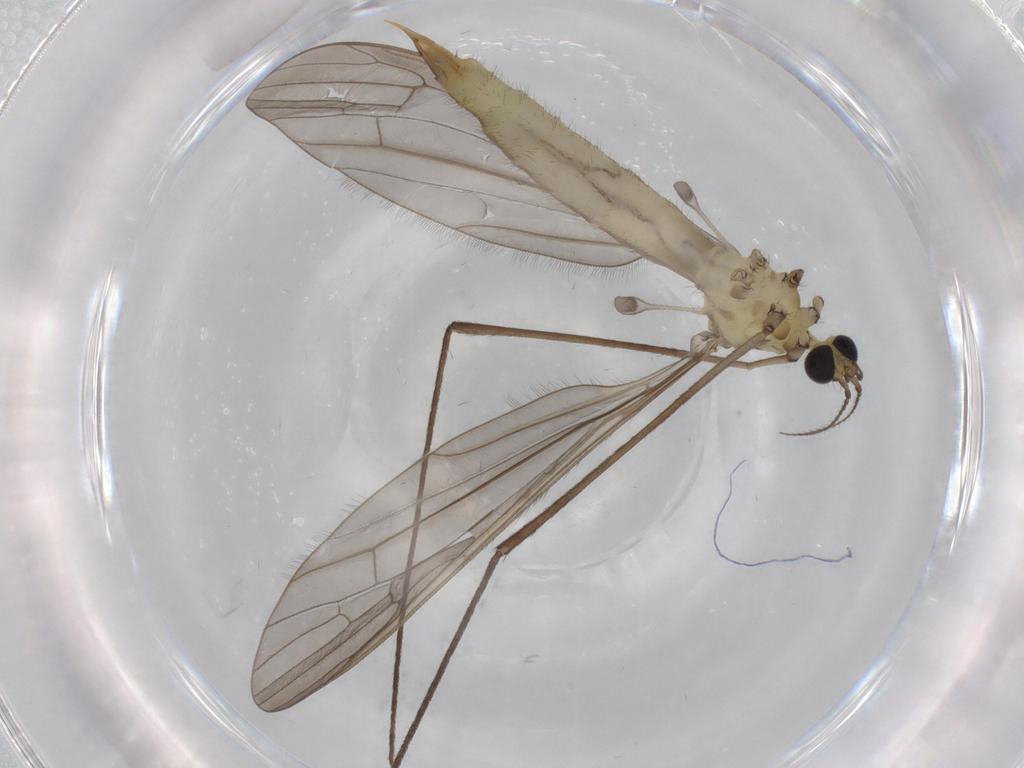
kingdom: Animalia
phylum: Arthropoda
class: Insecta
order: Diptera
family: Limoniidae
